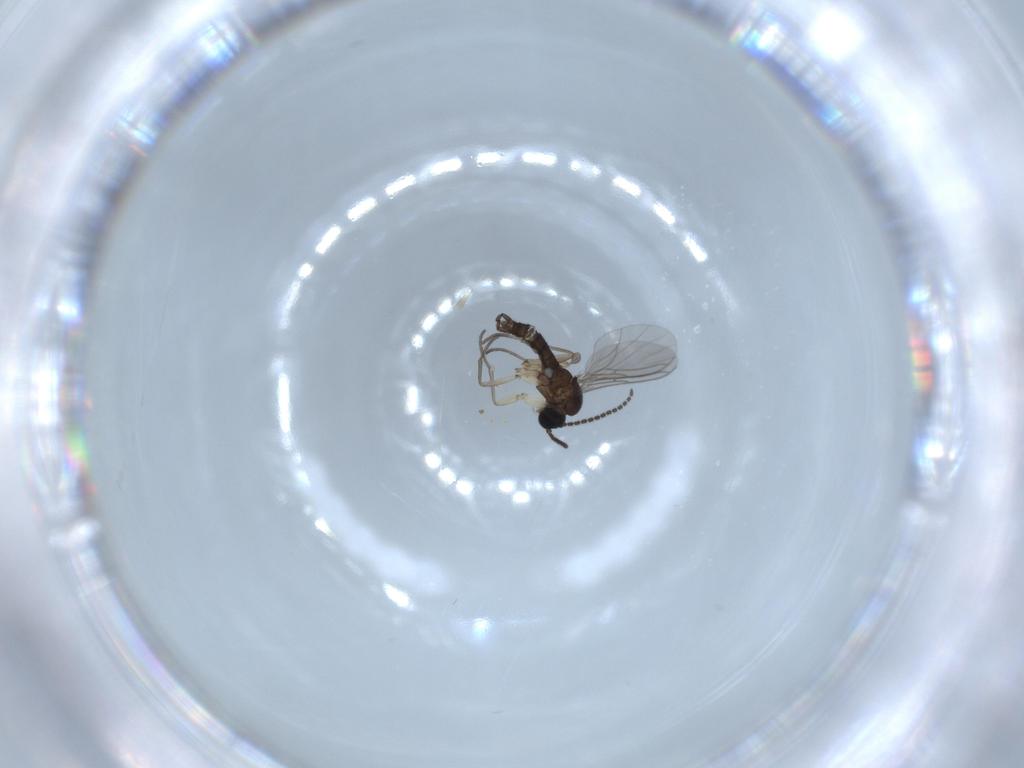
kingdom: Animalia
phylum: Arthropoda
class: Insecta
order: Diptera
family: Sciaridae
